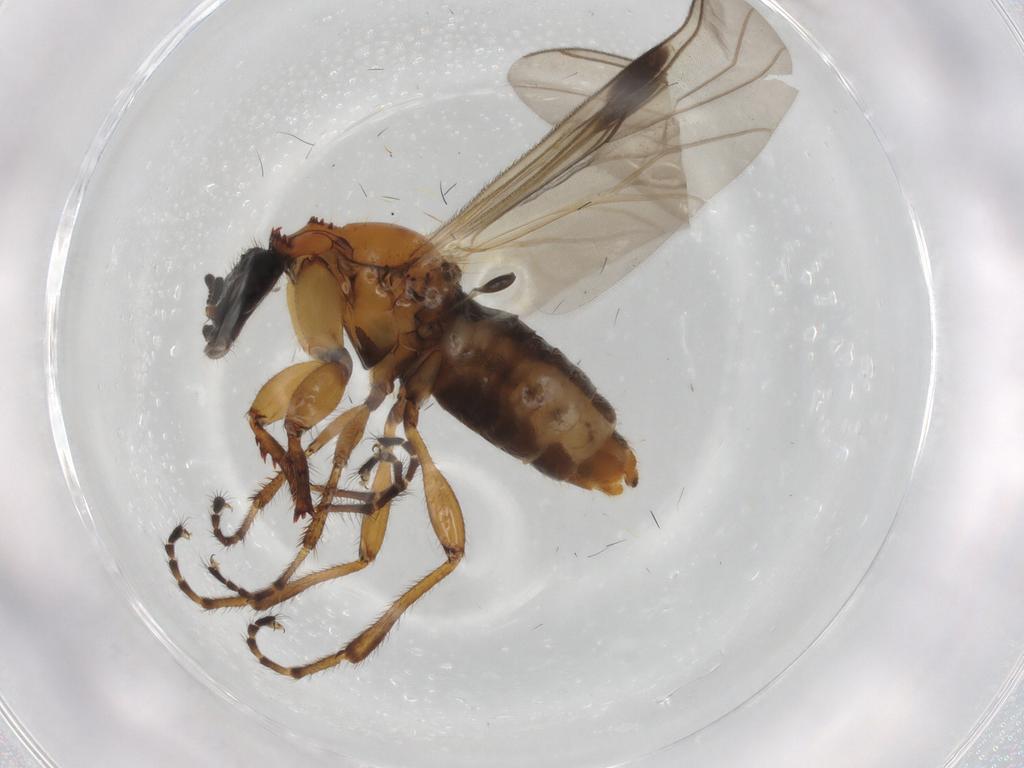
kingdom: Animalia
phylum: Arthropoda
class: Insecta
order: Diptera
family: Bibionidae
